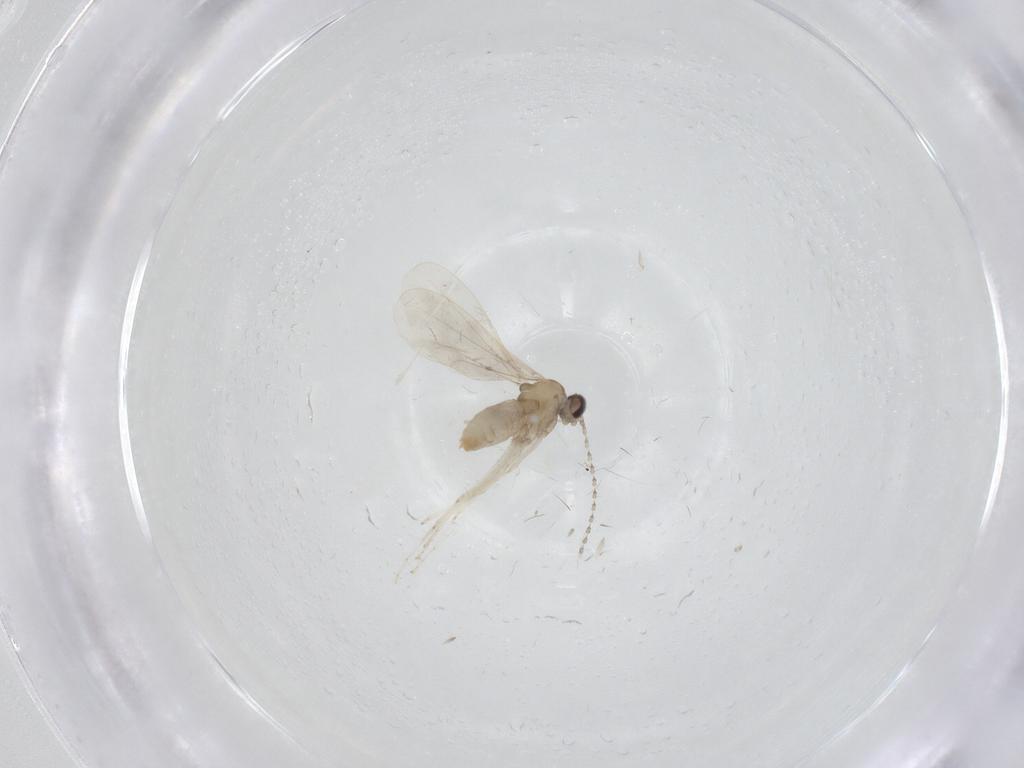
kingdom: Animalia
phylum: Arthropoda
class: Insecta
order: Diptera
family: Cecidomyiidae
